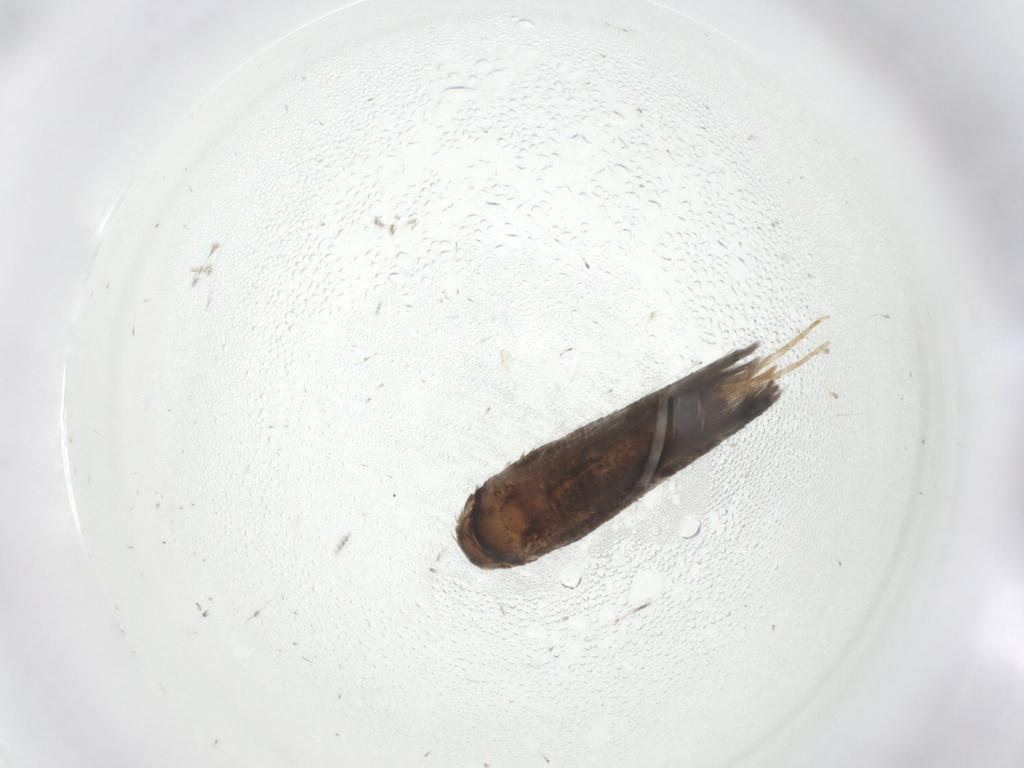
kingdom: Animalia
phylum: Arthropoda
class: Insecta
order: Lepidoptera
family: Elachistidae
